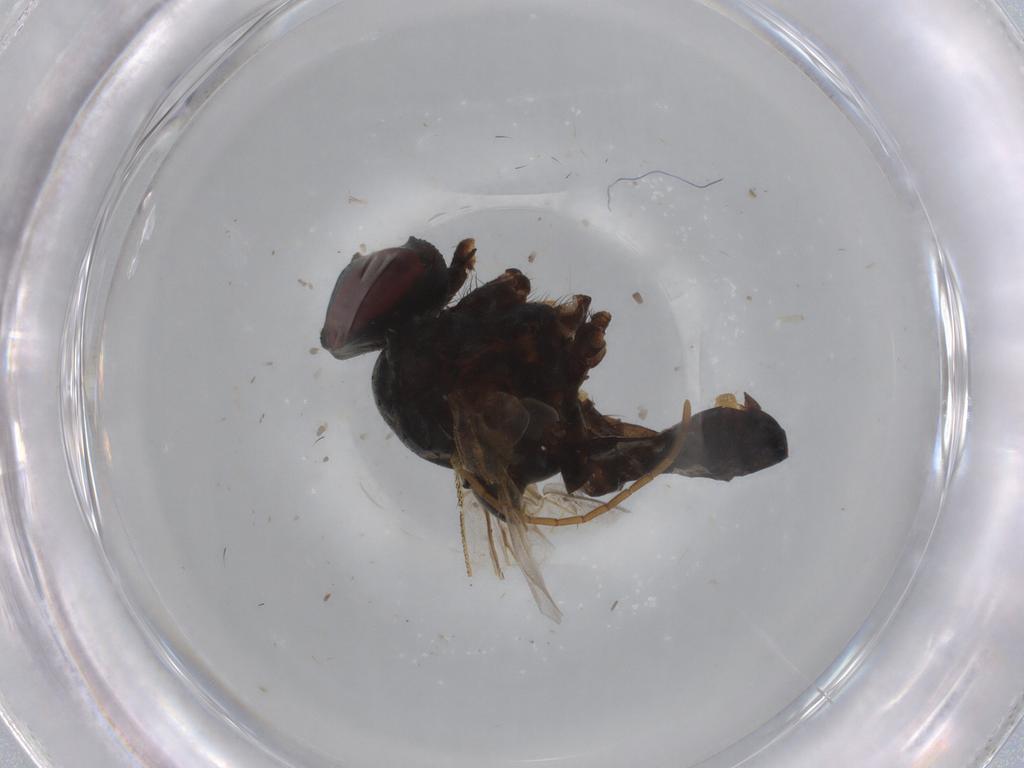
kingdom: Animalia
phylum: Arthropoda
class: Insecta
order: Diptera
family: Muscidae
